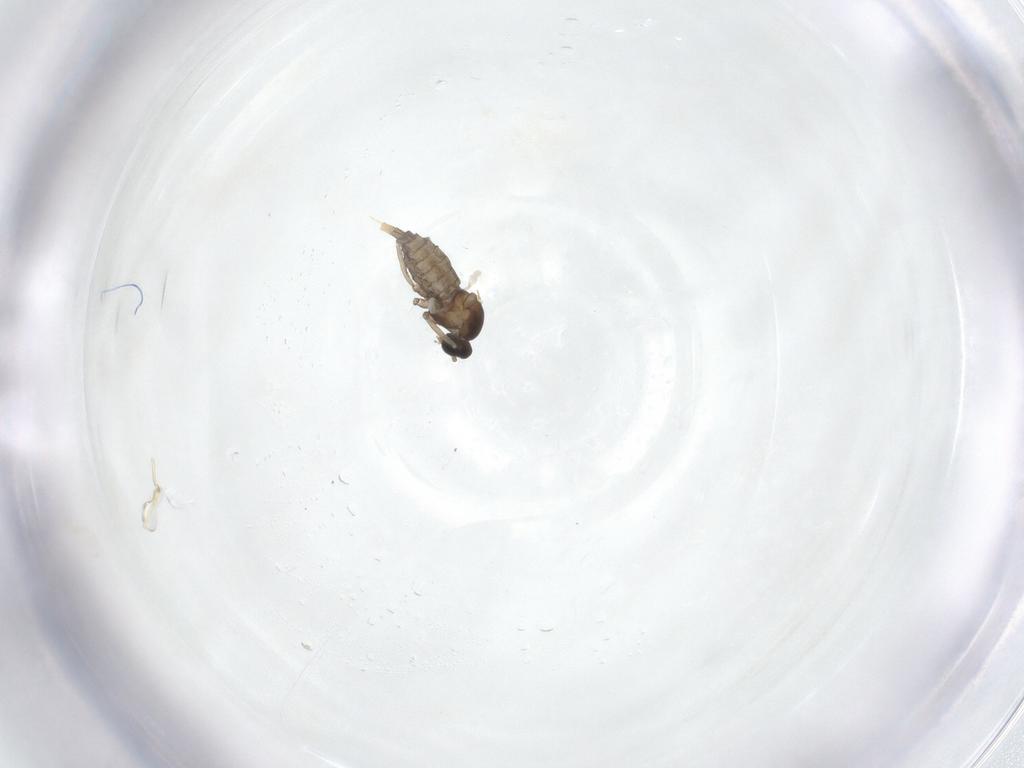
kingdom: Animalia
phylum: Arthropoda
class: Insecta
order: Diptera
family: Cecidomyiidae
